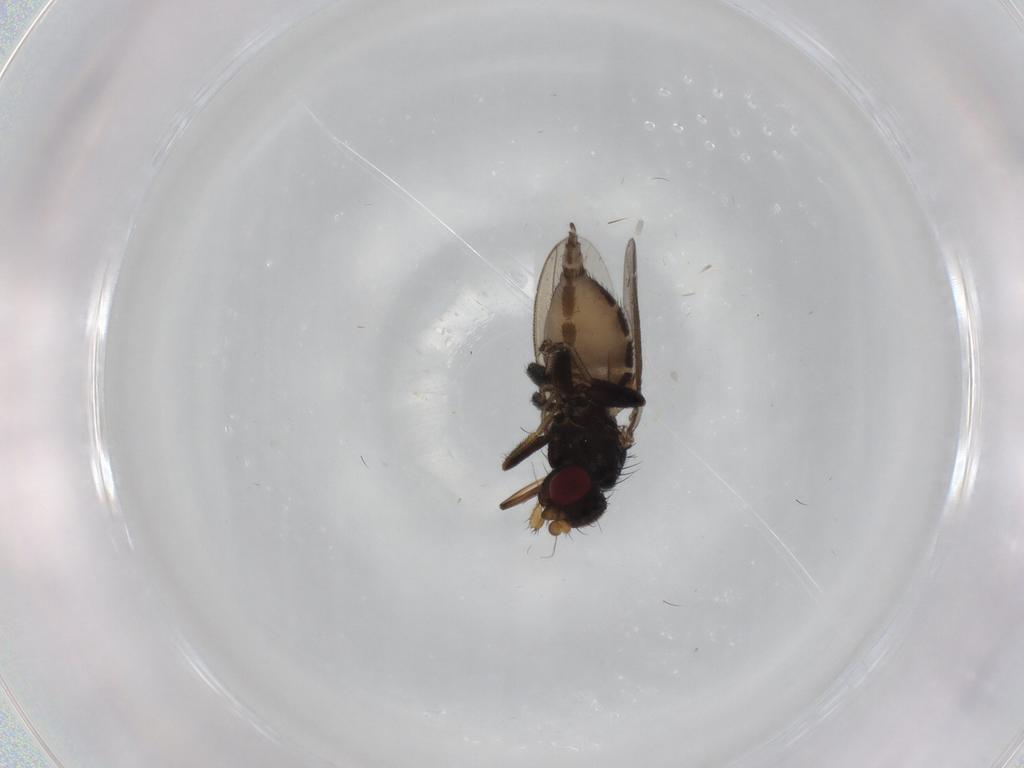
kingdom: Animalia
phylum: Arthropoda
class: Insecta
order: Diptera
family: Milichiidae
